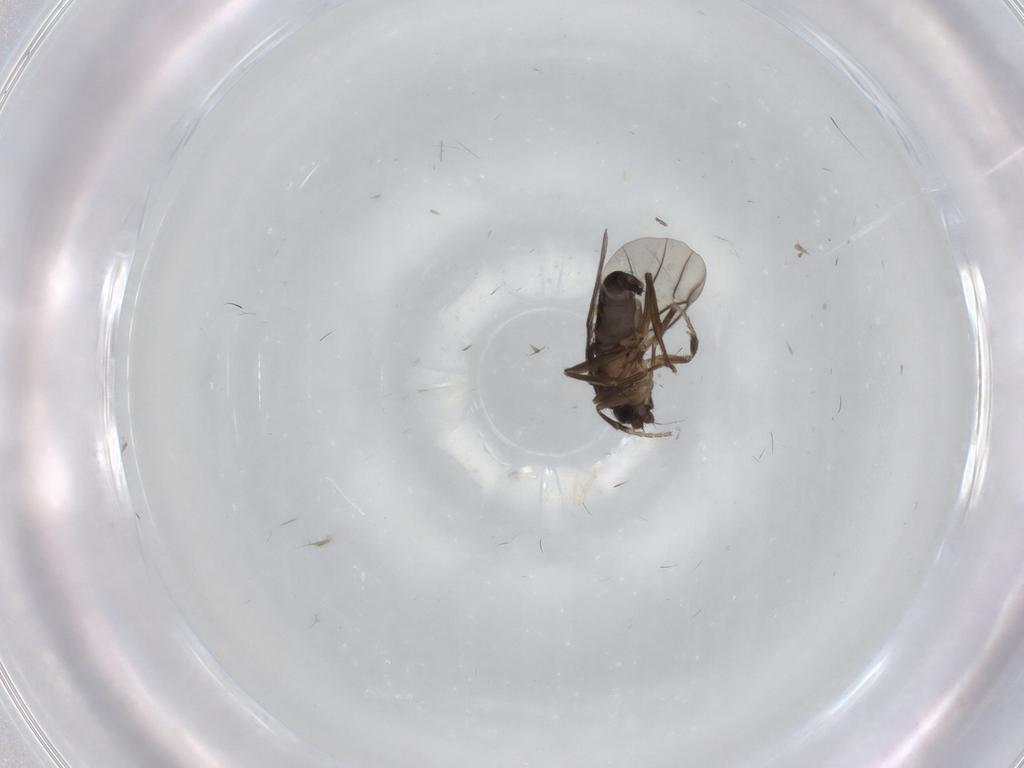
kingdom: Animalia
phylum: Arthropoda
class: Insecta
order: Diptera
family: Phoridae
